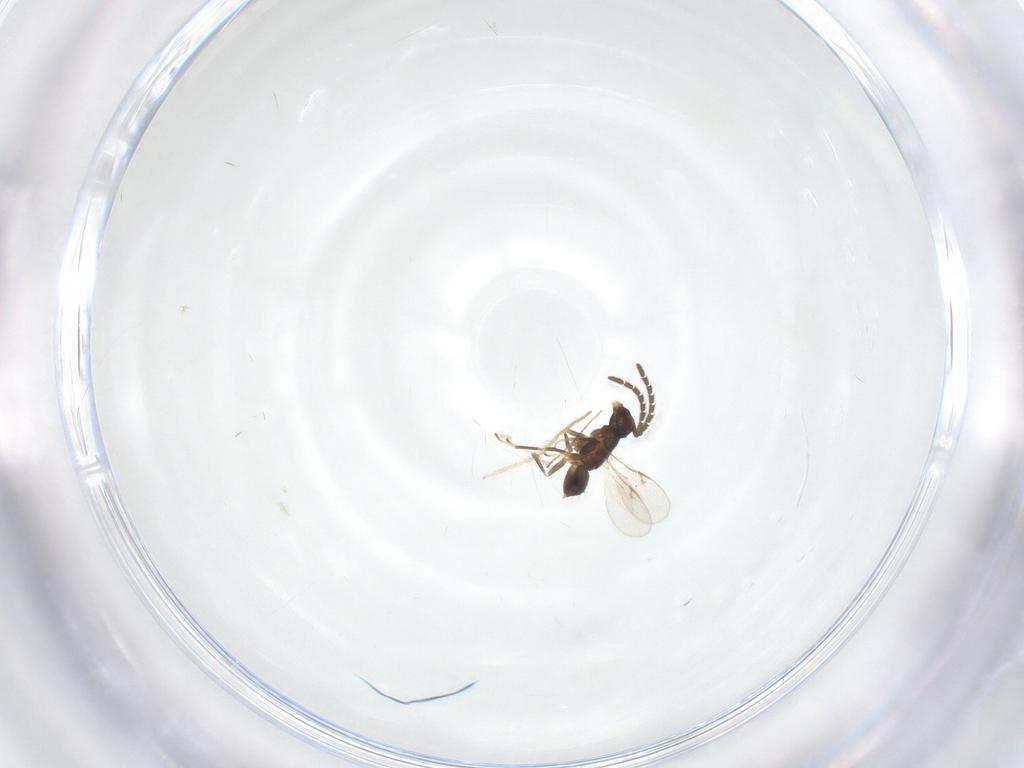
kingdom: Animalia
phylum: Arthropoda
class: Insecta
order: Hymenoptera
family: Encyrtidae
